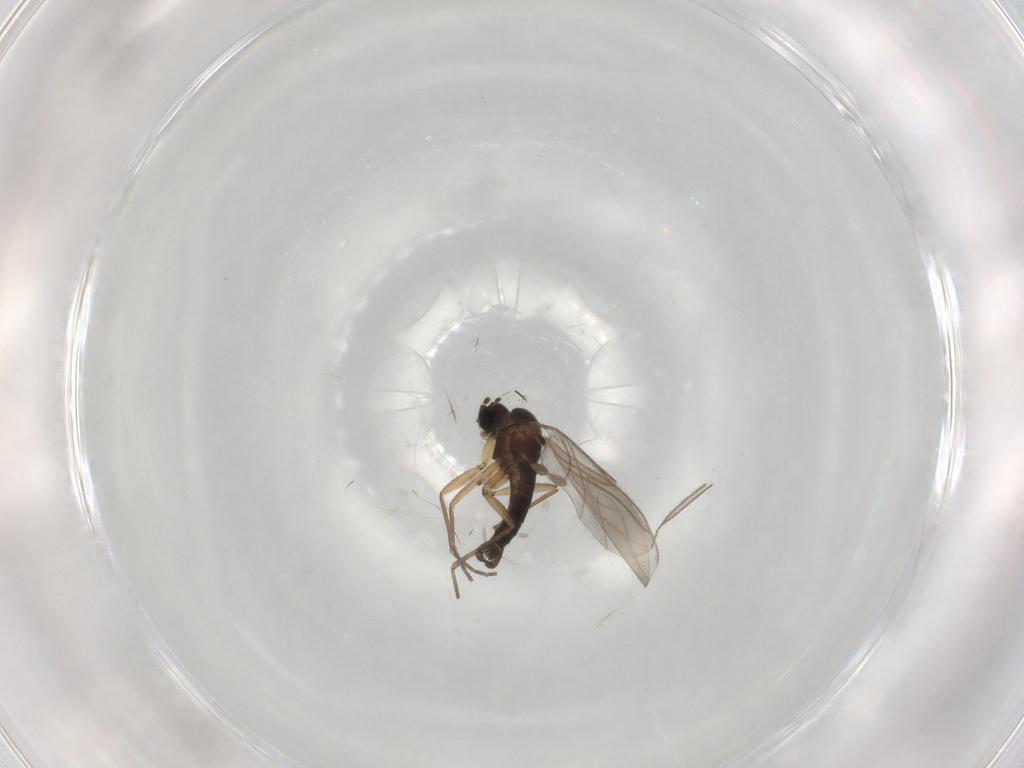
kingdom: Animalia
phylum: Arthropoda
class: Insecta
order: Diptera
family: Sciaridae
